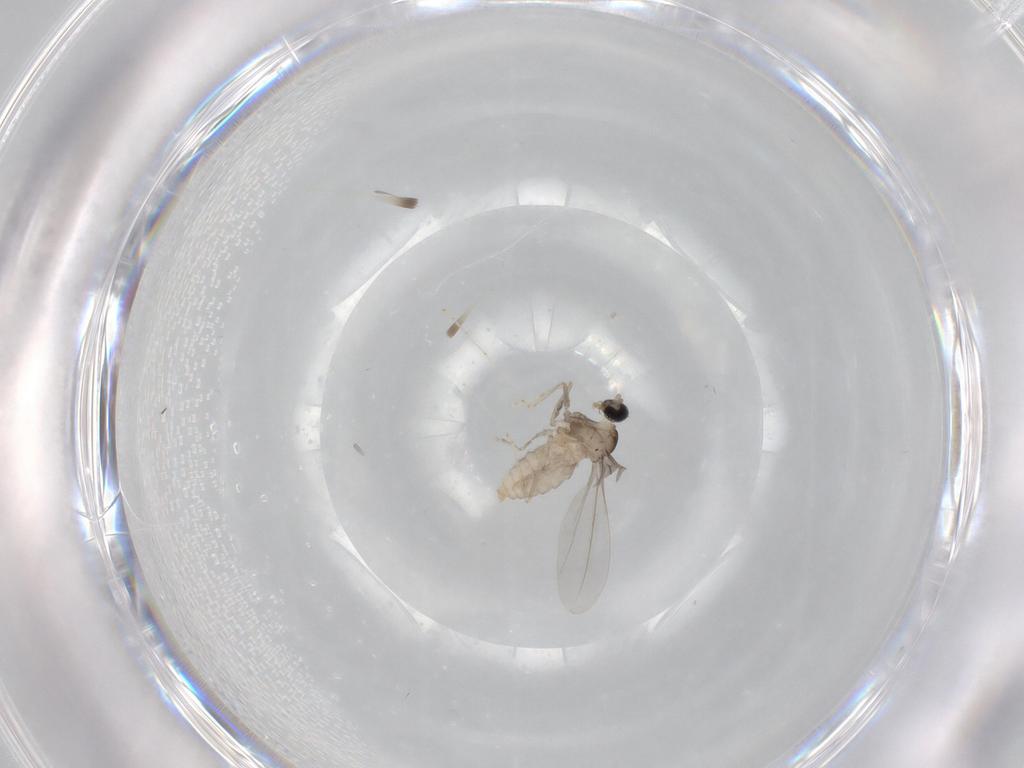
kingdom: Animalia
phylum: Arthropoda
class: Insecta
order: Diptera
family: Cecidomyiidae
